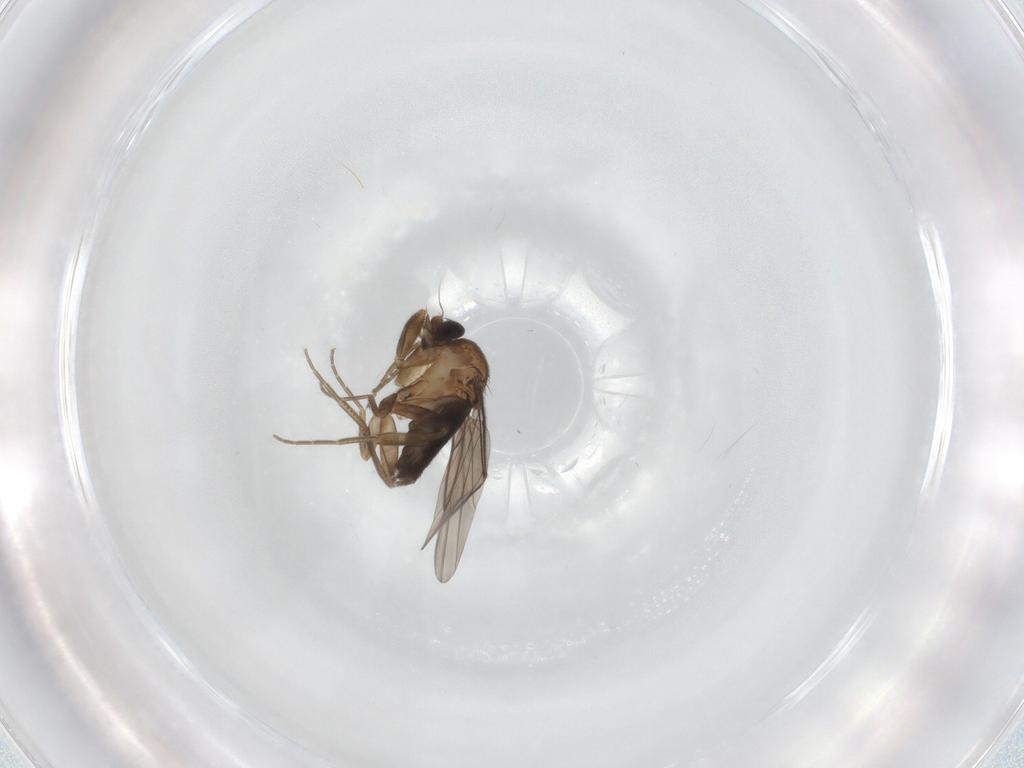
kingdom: Animalia
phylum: Arthropoda
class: Insecta
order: Diptera
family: Phoridae
